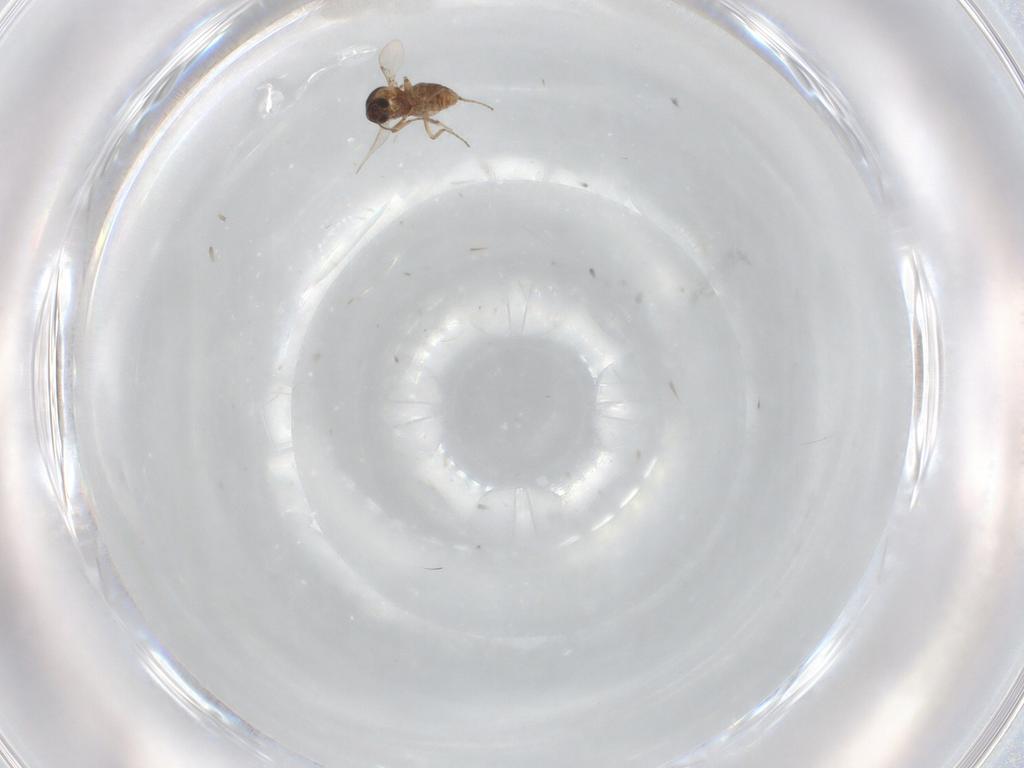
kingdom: Animalia
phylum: Arthropoda
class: Insecta
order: Diptera
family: Ceratopogonidae
